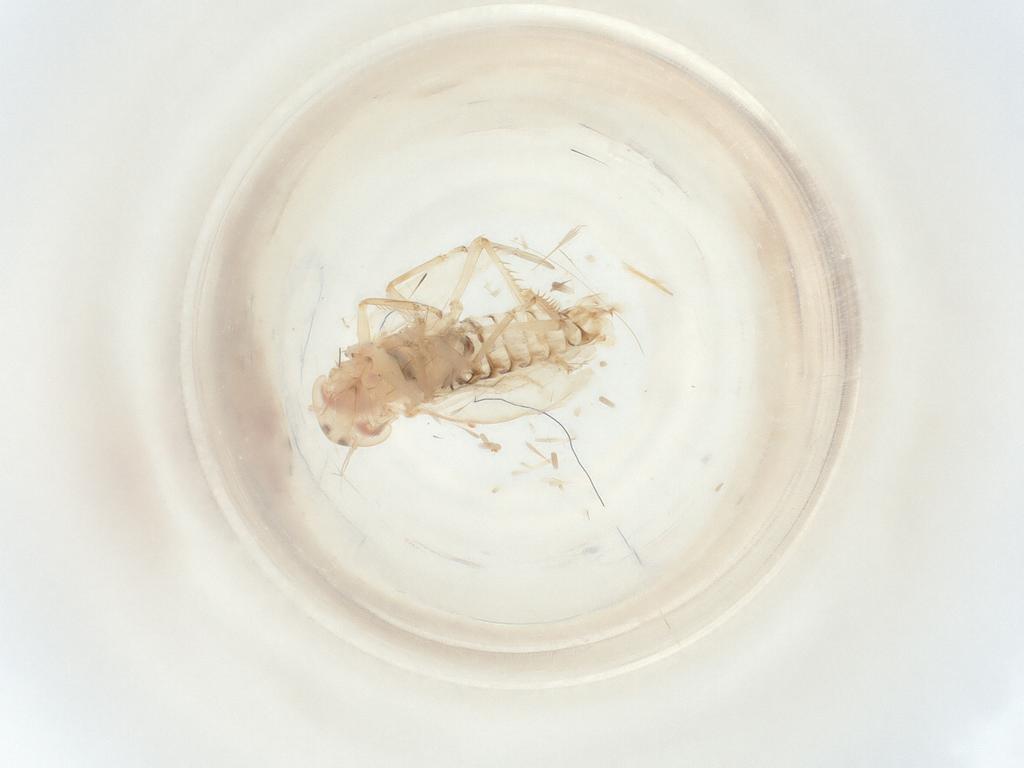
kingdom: Animalia
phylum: Arthropoda
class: Insecta
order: Hemiptera
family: Cicadellidae
